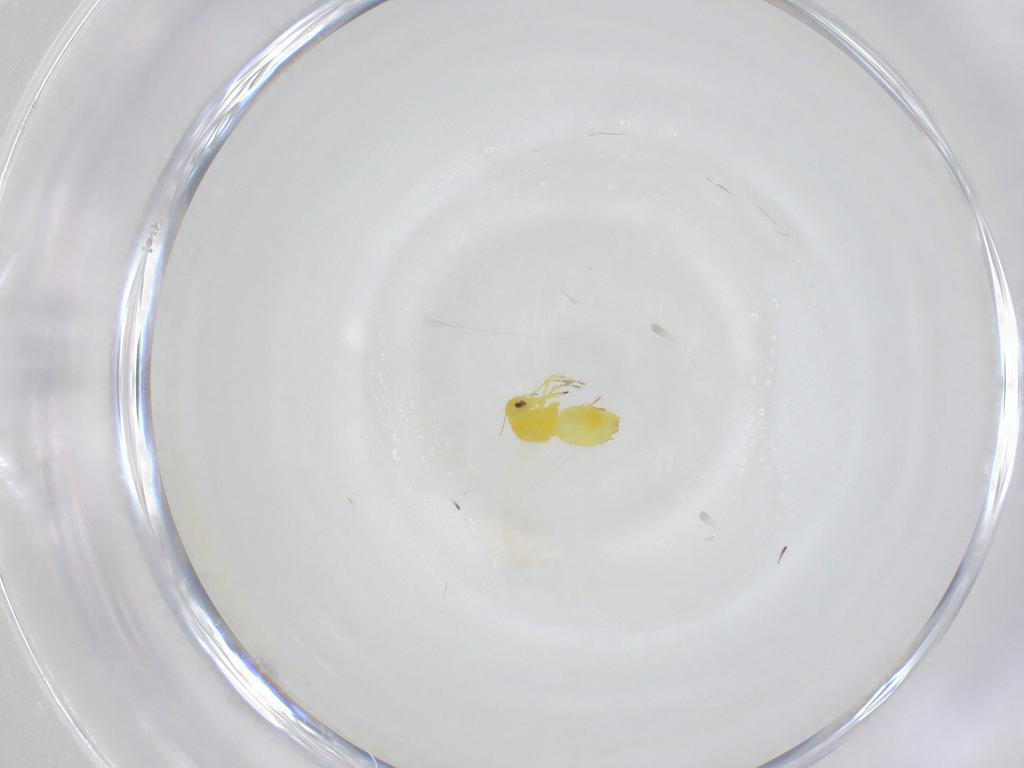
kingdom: Animalia
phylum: Arthropoda
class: Insecta
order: Hemiptera
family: Aleyrodidae
